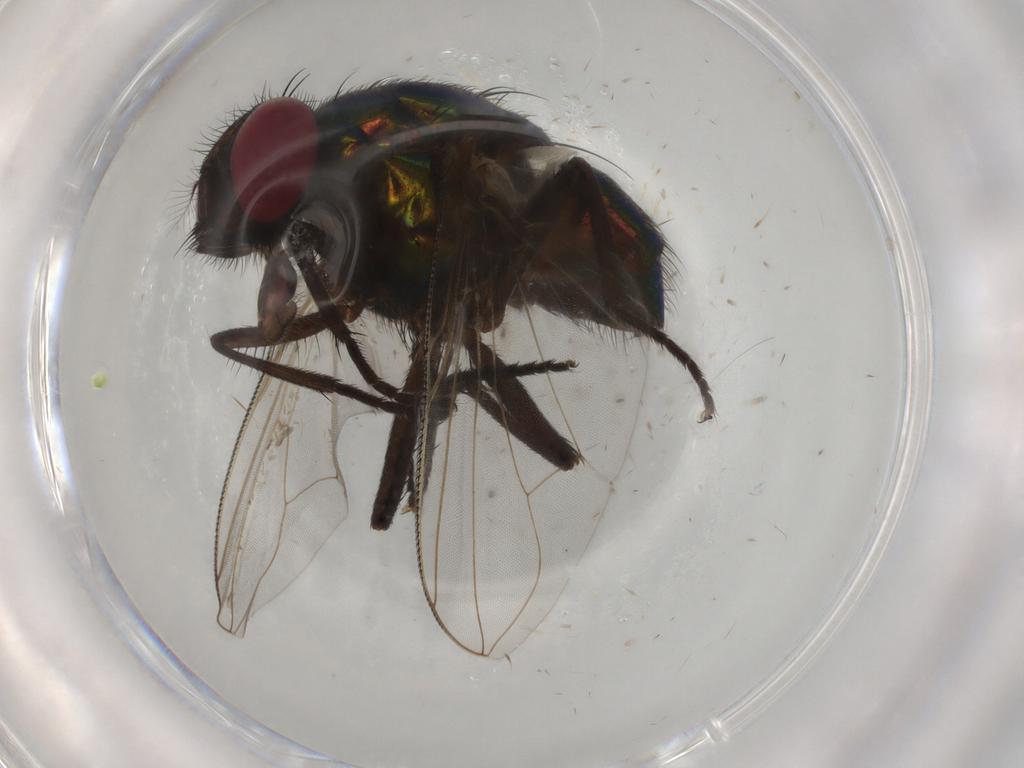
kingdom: Animalia
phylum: Arthropoda
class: Insecta
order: Diptera
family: Muscidae
